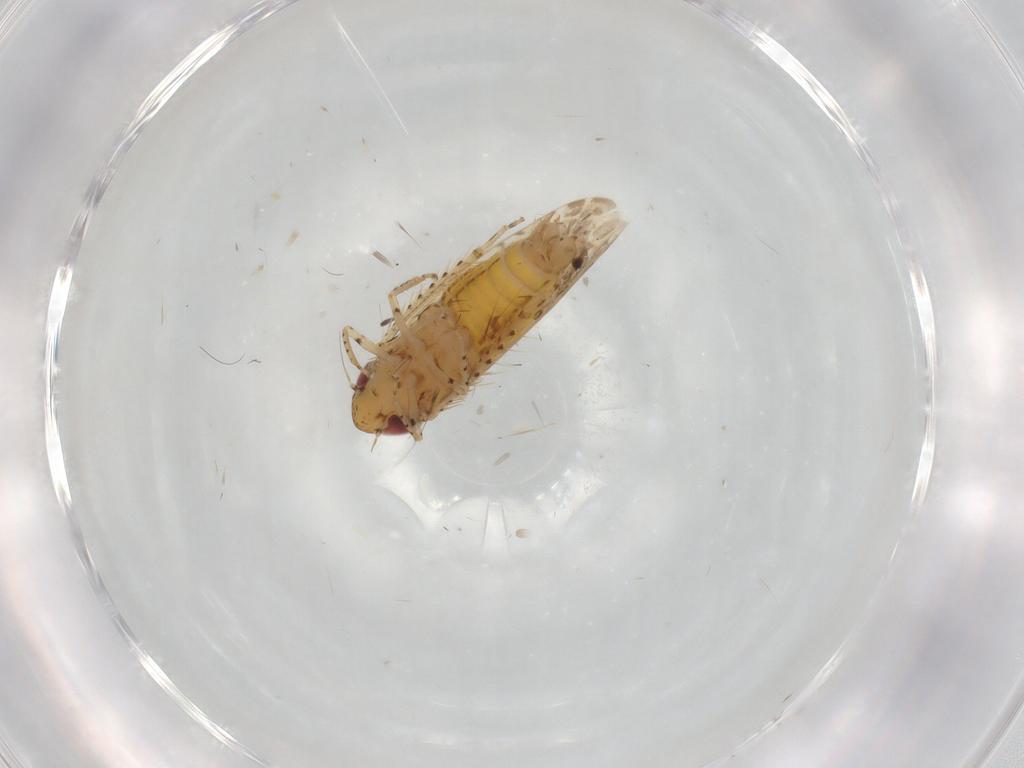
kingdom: Animalia
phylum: Arthropoda
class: Insecta
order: Hemiptera
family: Cicadellidae
